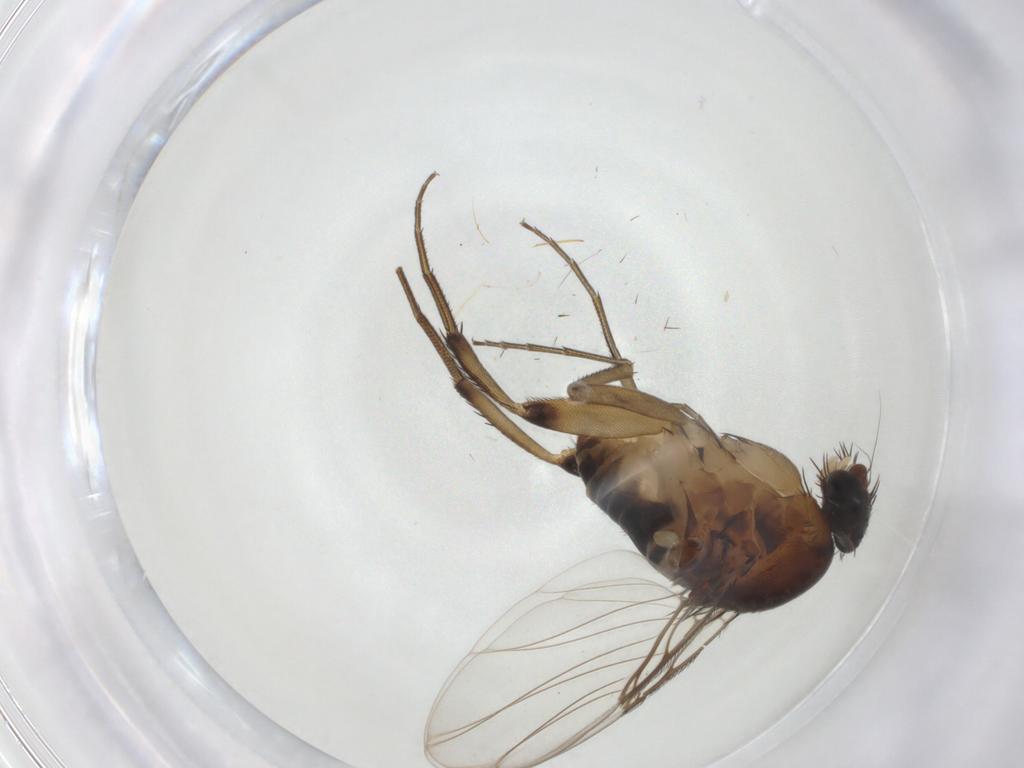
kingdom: Animalia
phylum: Arthropoda
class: Insecta
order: Diptera
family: Phoridae
